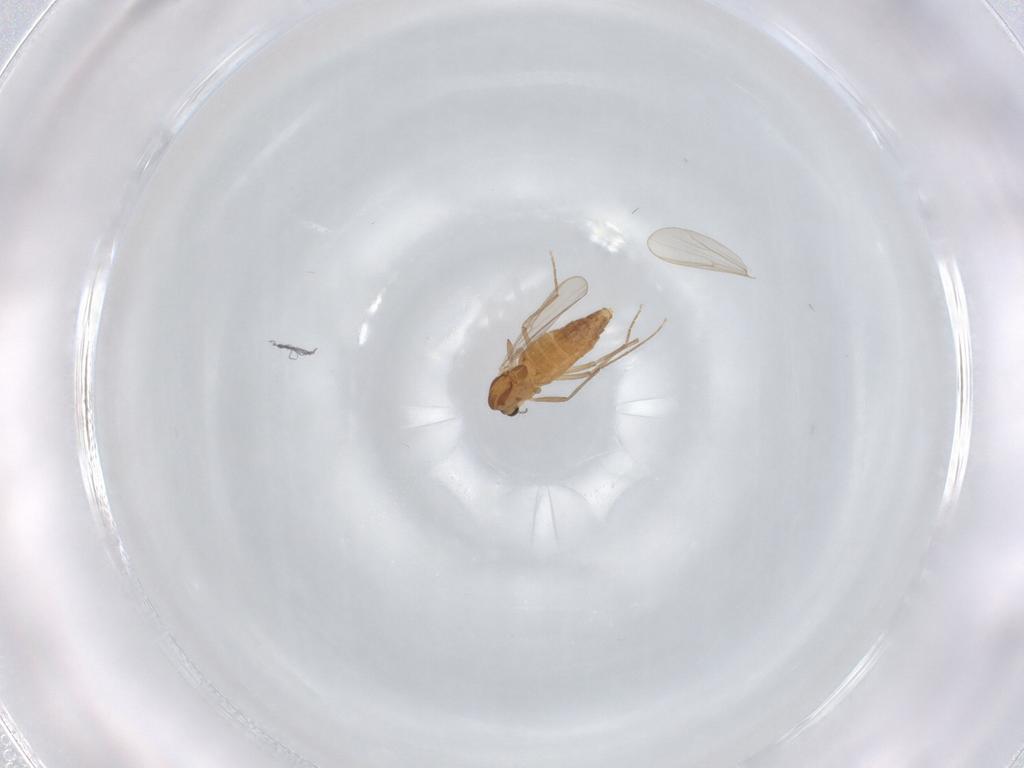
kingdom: Animalia
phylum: Arthropoda
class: Insecta
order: Diptera
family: Chironomidae
